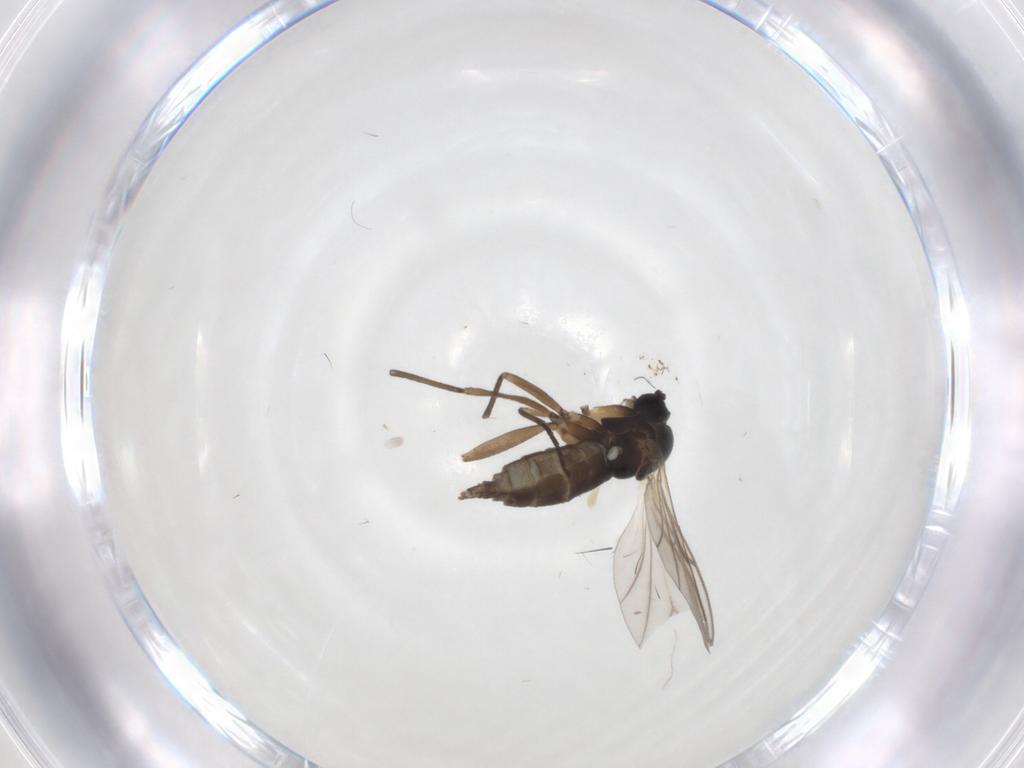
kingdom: Animalia
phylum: Arthropoda
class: Insecta
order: Diptera
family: Sciaridae
